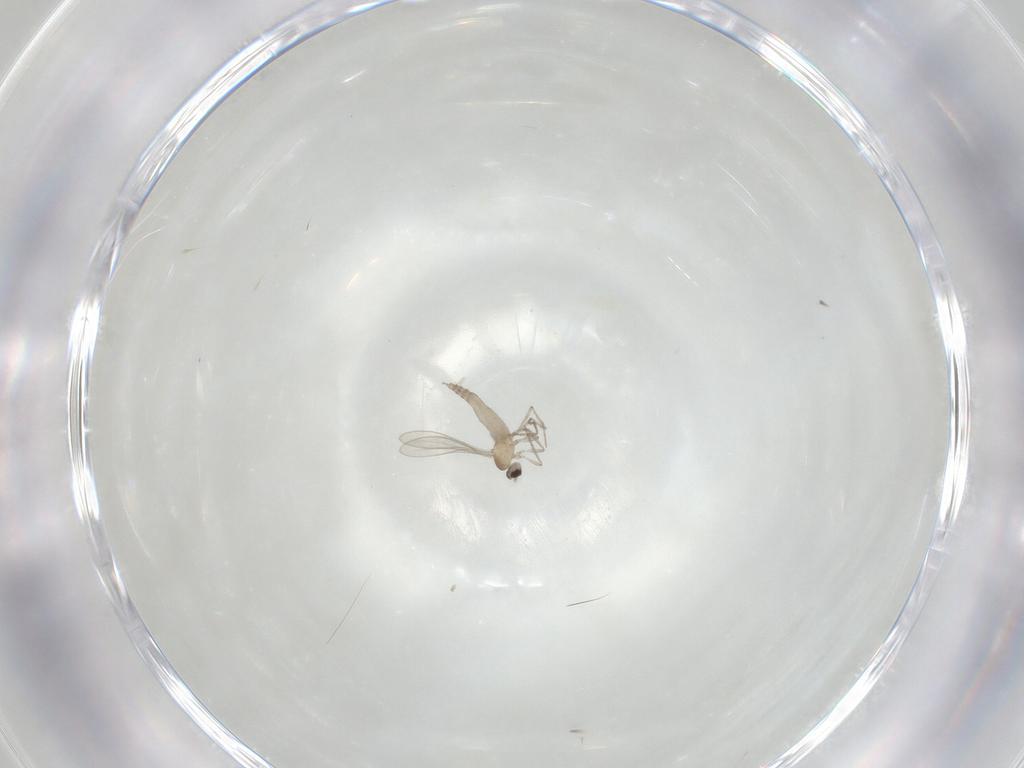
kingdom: Animalia
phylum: Arthropoda
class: Insecta
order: Diptera
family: Cecidomyiidae
